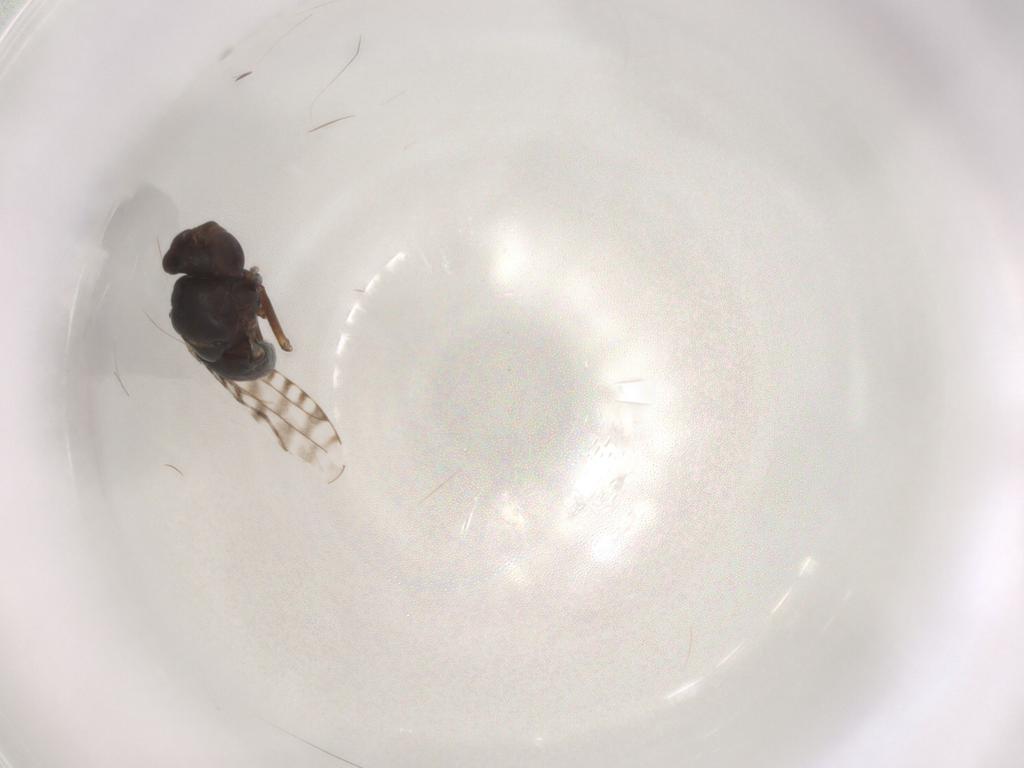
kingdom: Animalia
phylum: Arthropoda
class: Insecta
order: Diptera
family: Ephydridae
